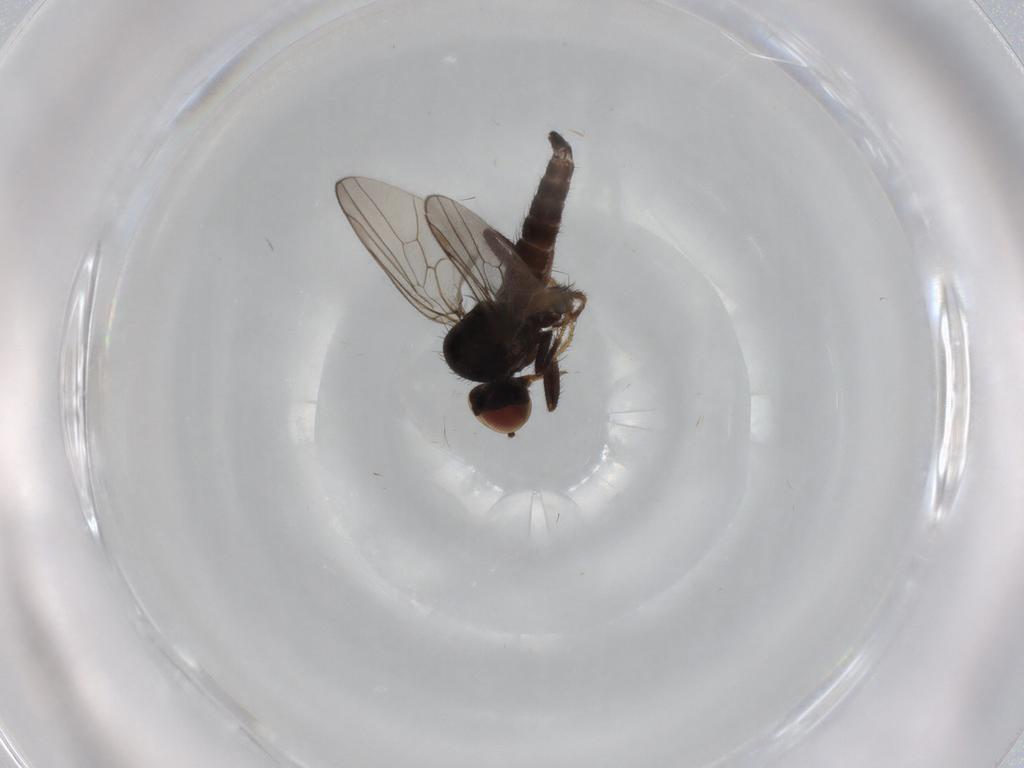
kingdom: Animalia
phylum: Arthropoda
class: Insecta
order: Diptera
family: Hybotidae
